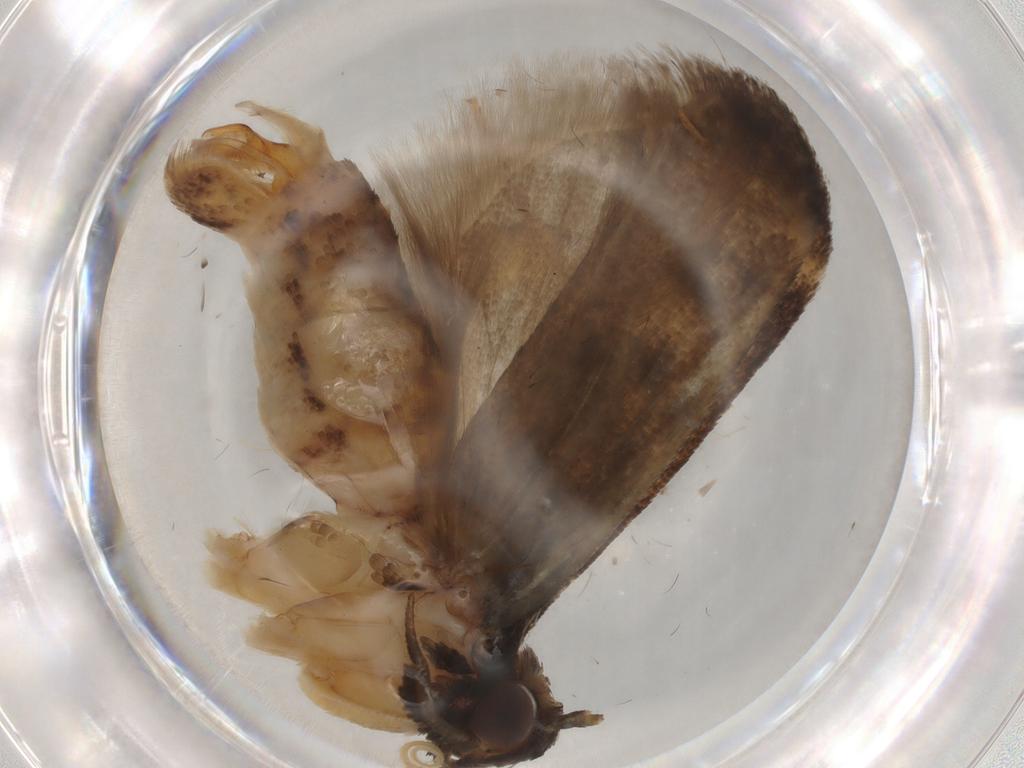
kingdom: Animalia
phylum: Arthropoda
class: Insecta
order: Lepidoptera
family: Gelechiidae
